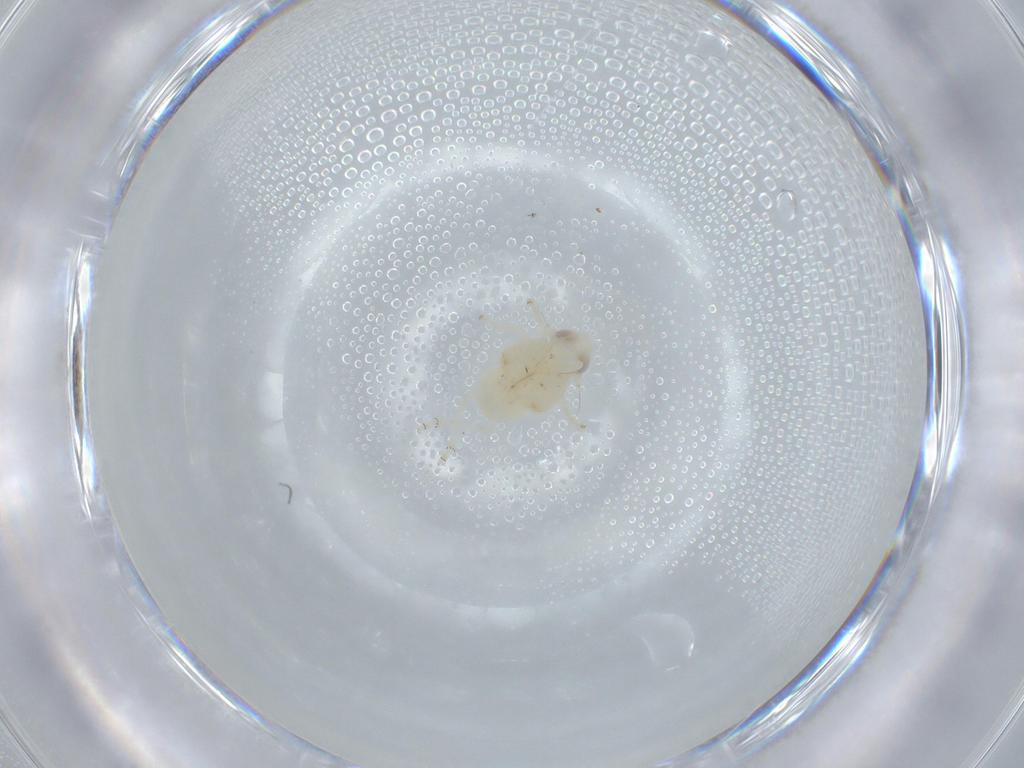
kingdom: Animalia
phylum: Arthropoda
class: Insecta
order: Hemiptera
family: Nogodinidae
